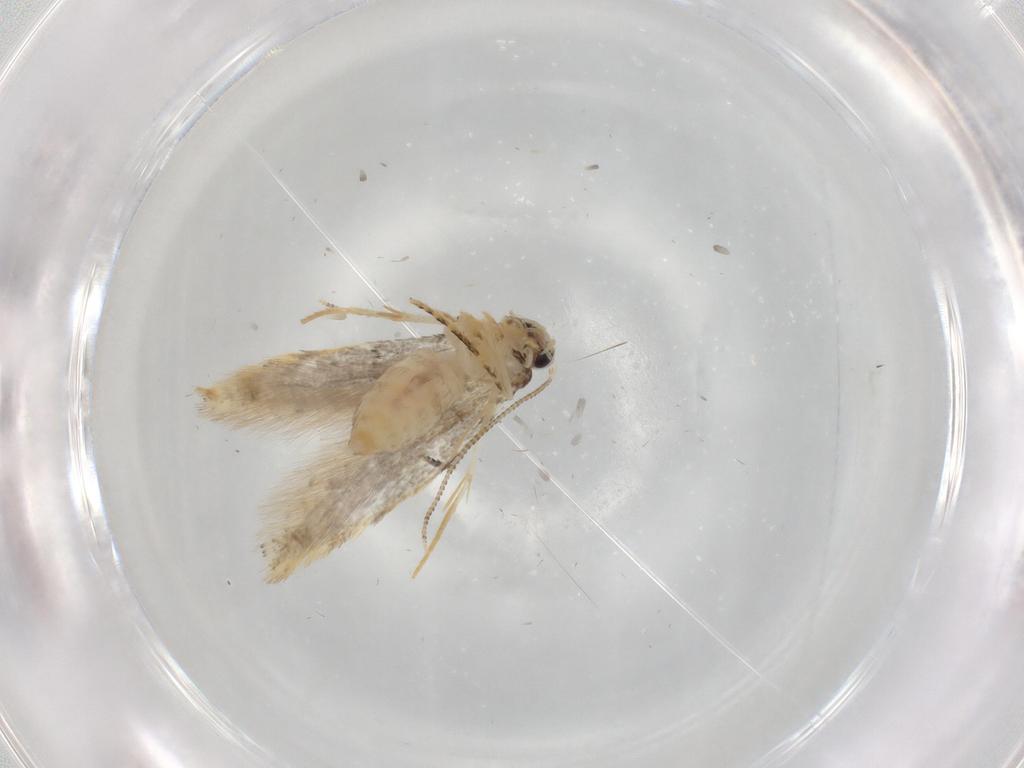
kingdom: Animalia
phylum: Arthropoda
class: Insecta
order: Lepidoptera
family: Tineidae
